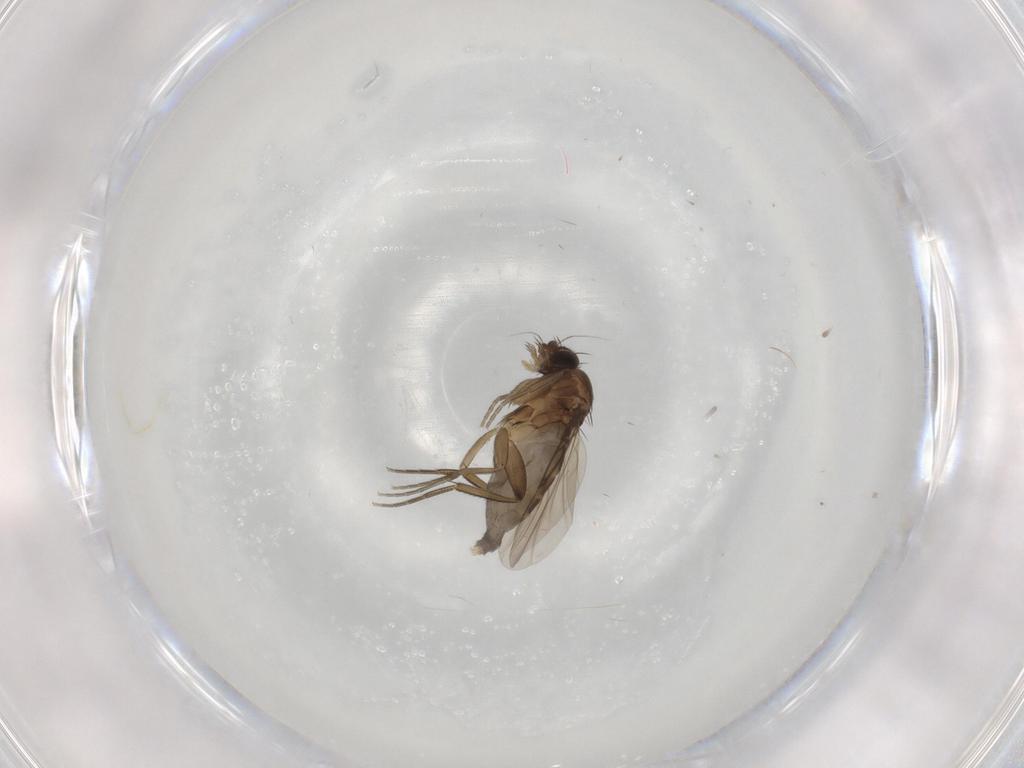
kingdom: Animalia
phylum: Arthropoda
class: Insecta
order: Diptera
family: Phoridae
